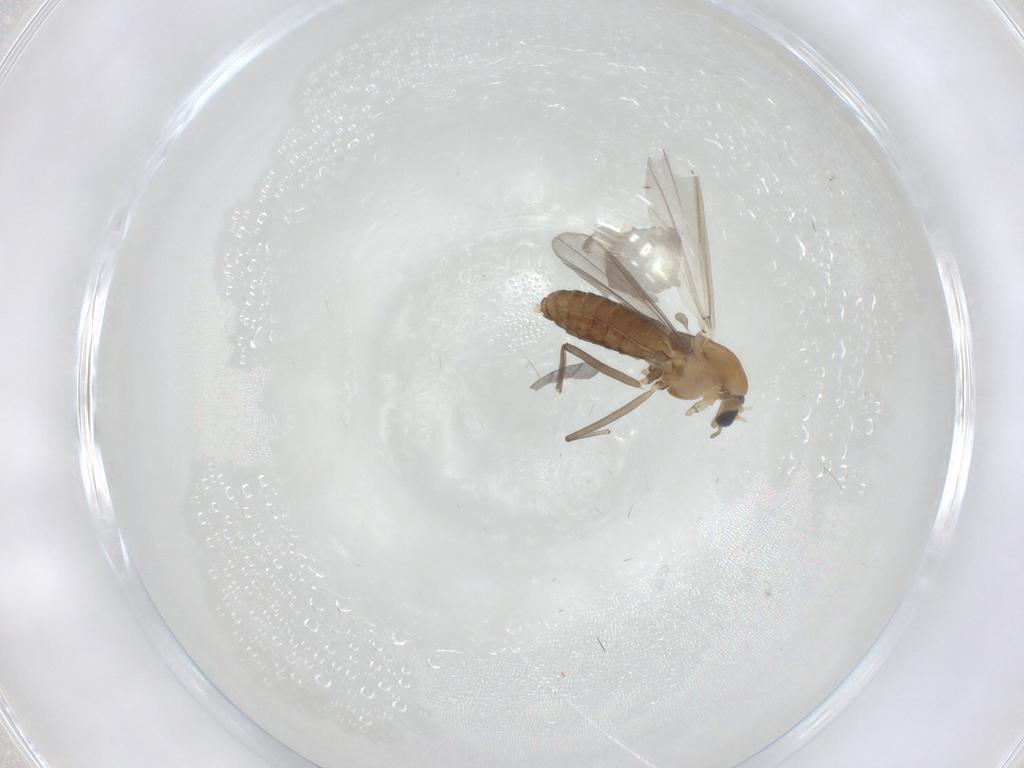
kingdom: Animalia
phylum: Arthropoda
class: Insecta
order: Diptera
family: Chironomidae
